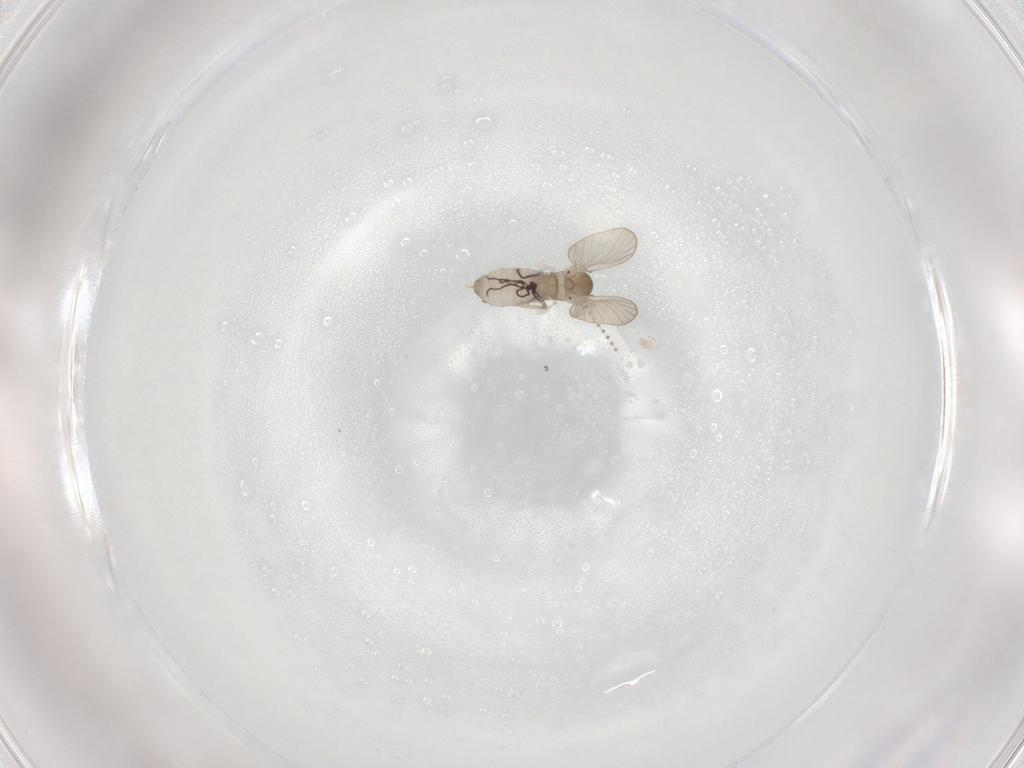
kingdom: Animalia
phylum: Arthropoda
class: Insecta
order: Diptera
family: Psychodidae
